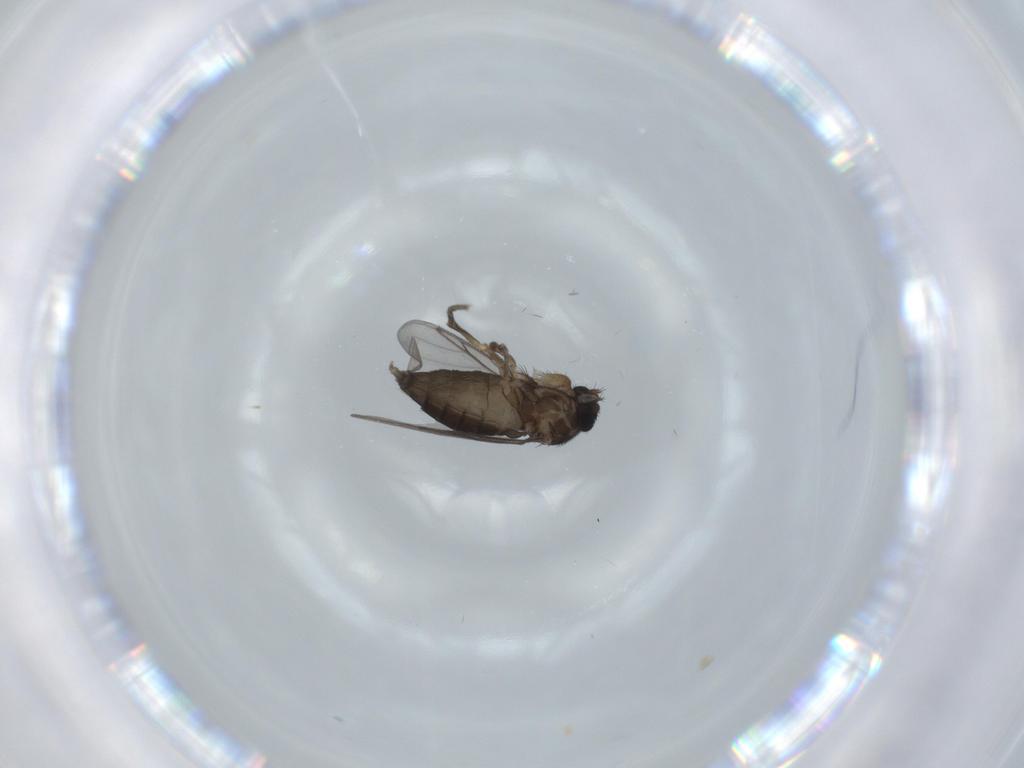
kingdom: Animalia
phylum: Arthropoda
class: Insecta
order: Diptera
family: Phoridae
